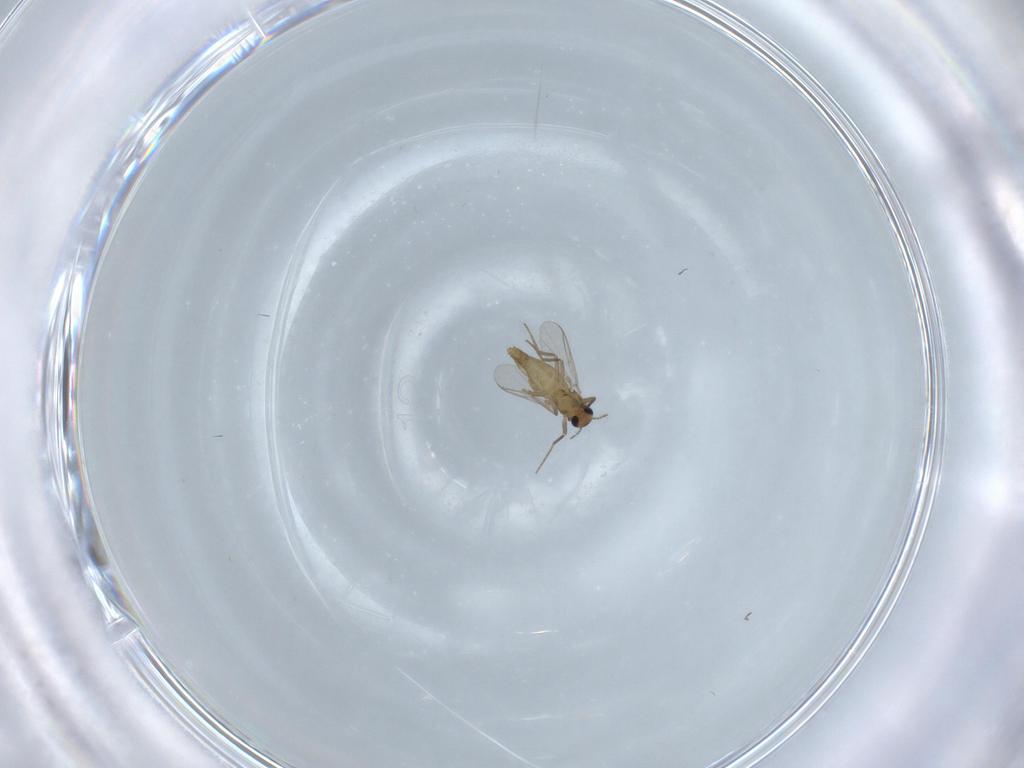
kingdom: Animalia
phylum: Arthropoda
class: Insecta
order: Diptera
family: Chironomidae
